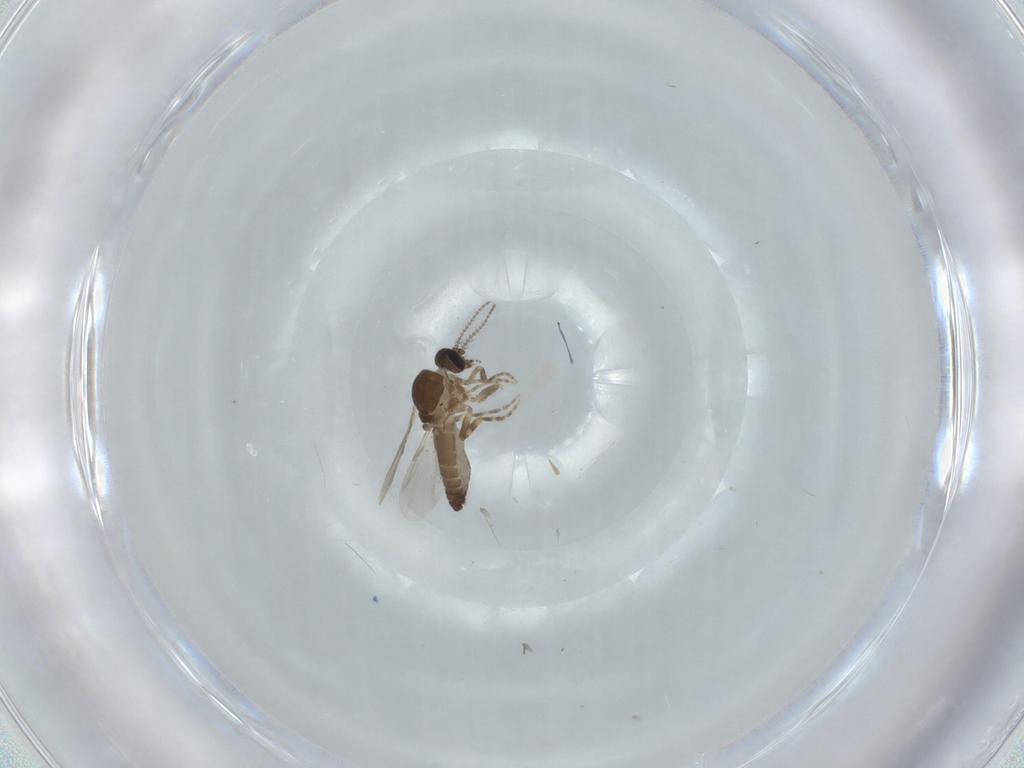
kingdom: Animalia
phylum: Arthropoda
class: Insecta
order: Diptera
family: Ceratopogonidae
